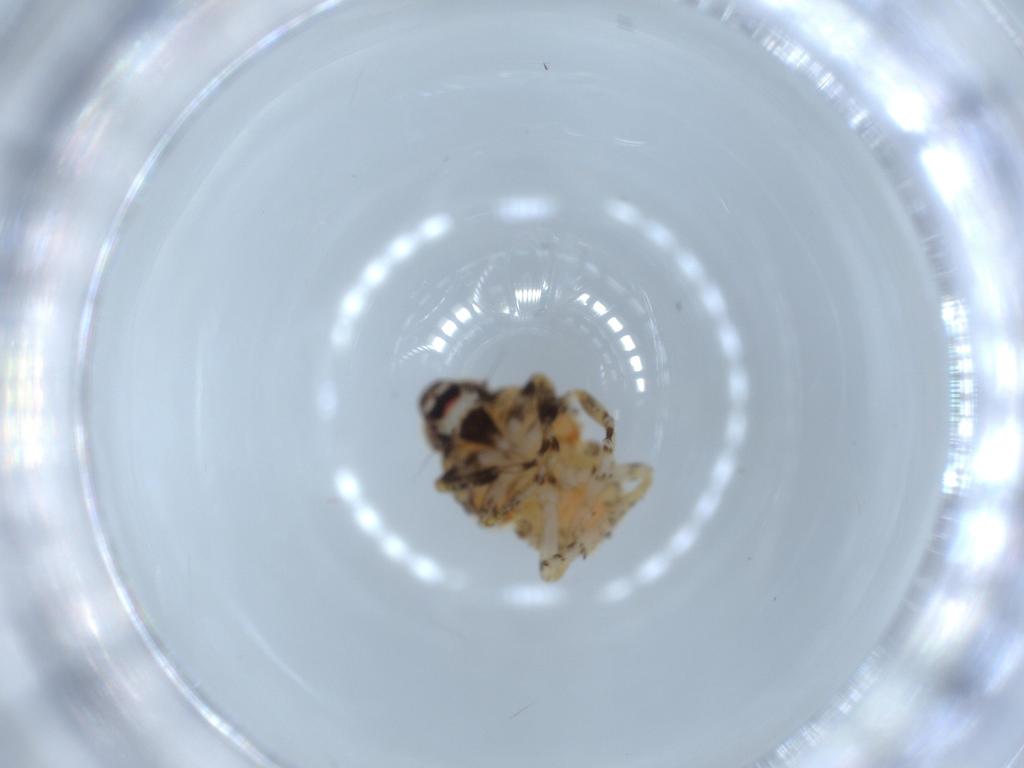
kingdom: Animalia
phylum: Arthropoda
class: Insecta
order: Hemiptera
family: Issidae
